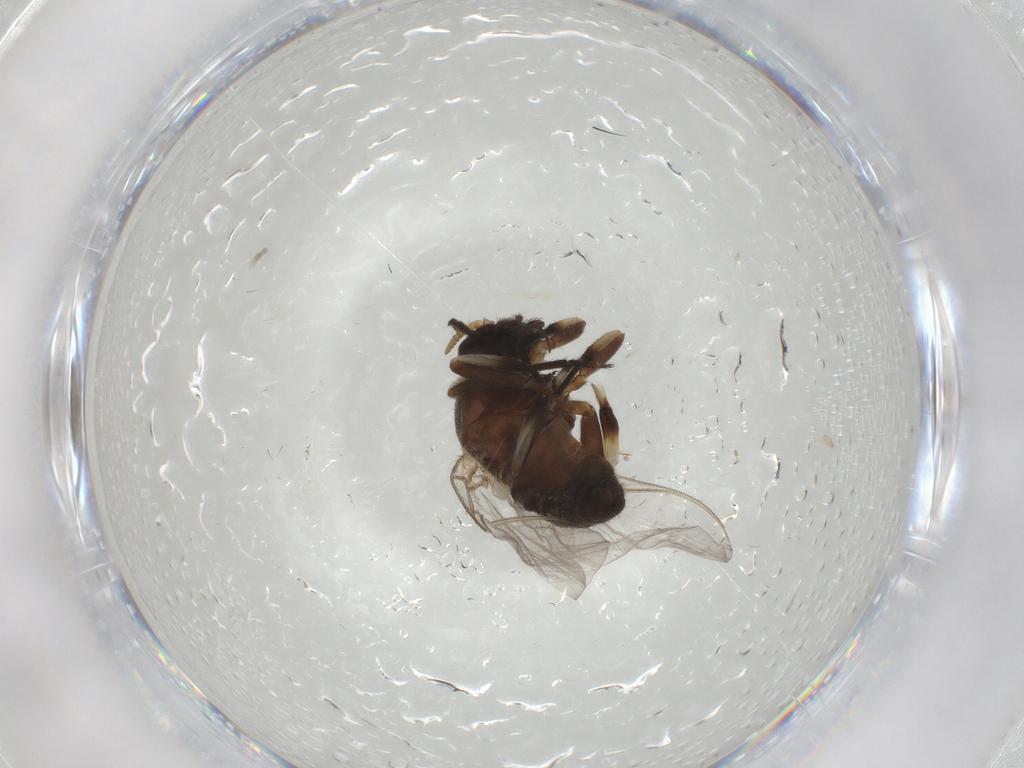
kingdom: Animalia
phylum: Arthropoda
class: Insecta
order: Diptera
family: Simuliidae
